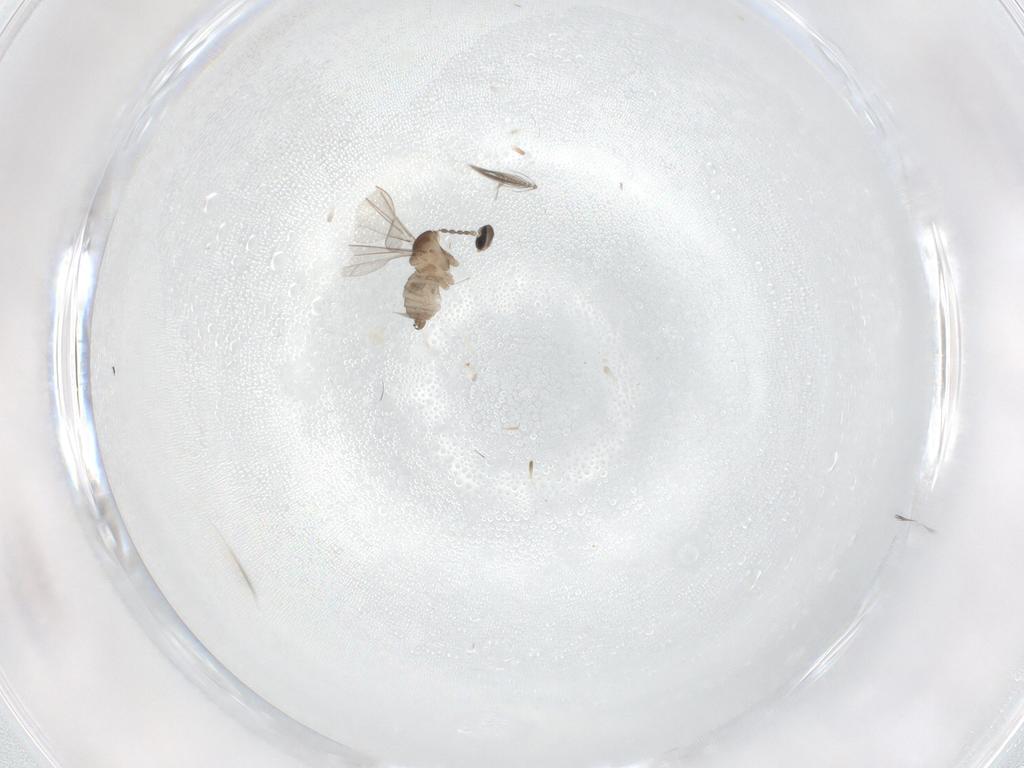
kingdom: Animalia
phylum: Arthropoda
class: Insecta
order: Diptera
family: Cecidomyiidae
